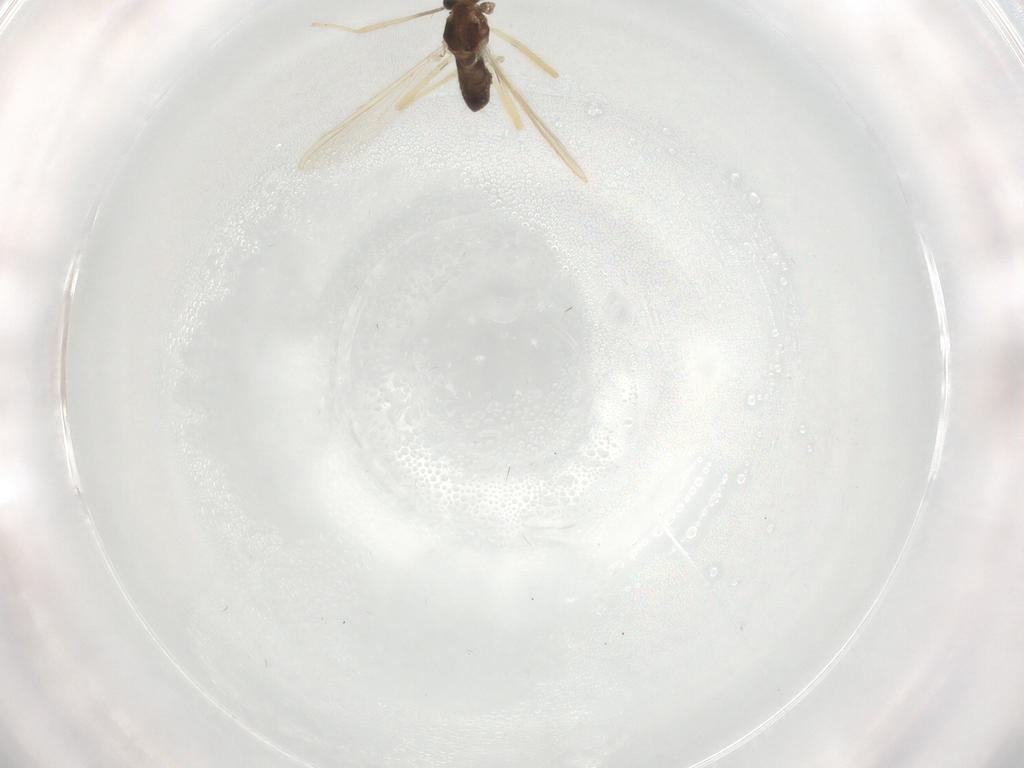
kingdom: Animalia
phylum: Arthropoda
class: Insecta
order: Diptera
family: Chironomidae
